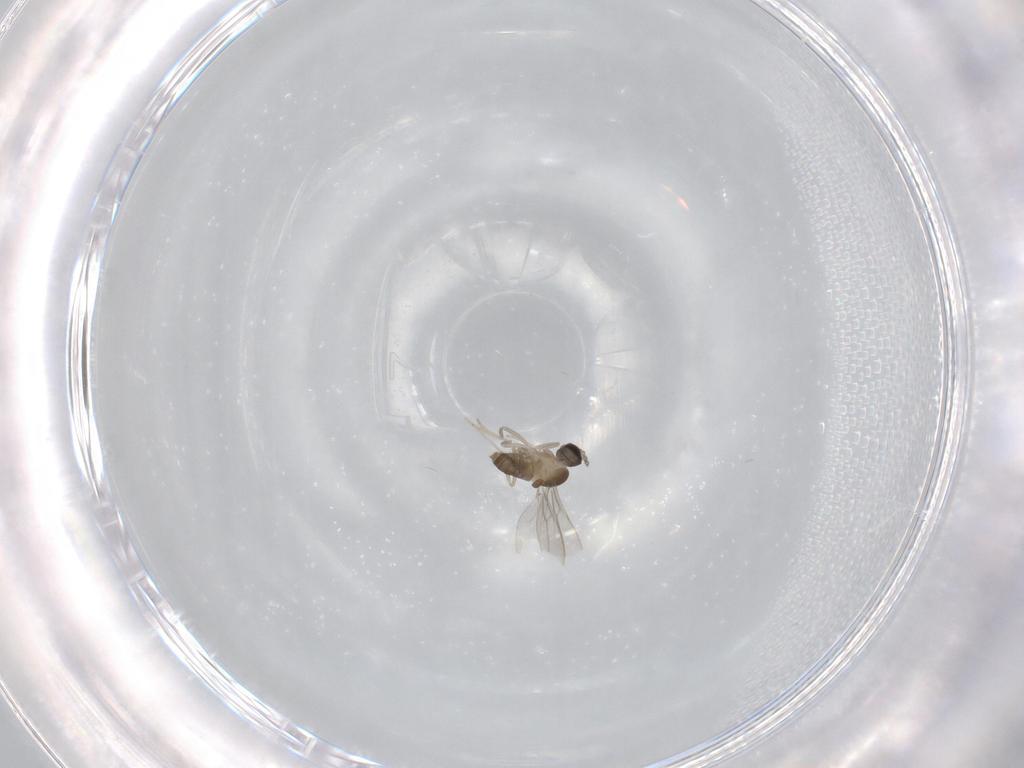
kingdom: Animalia
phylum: Arthropoda
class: Insecta
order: Diptera
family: Cecidomyiidae
